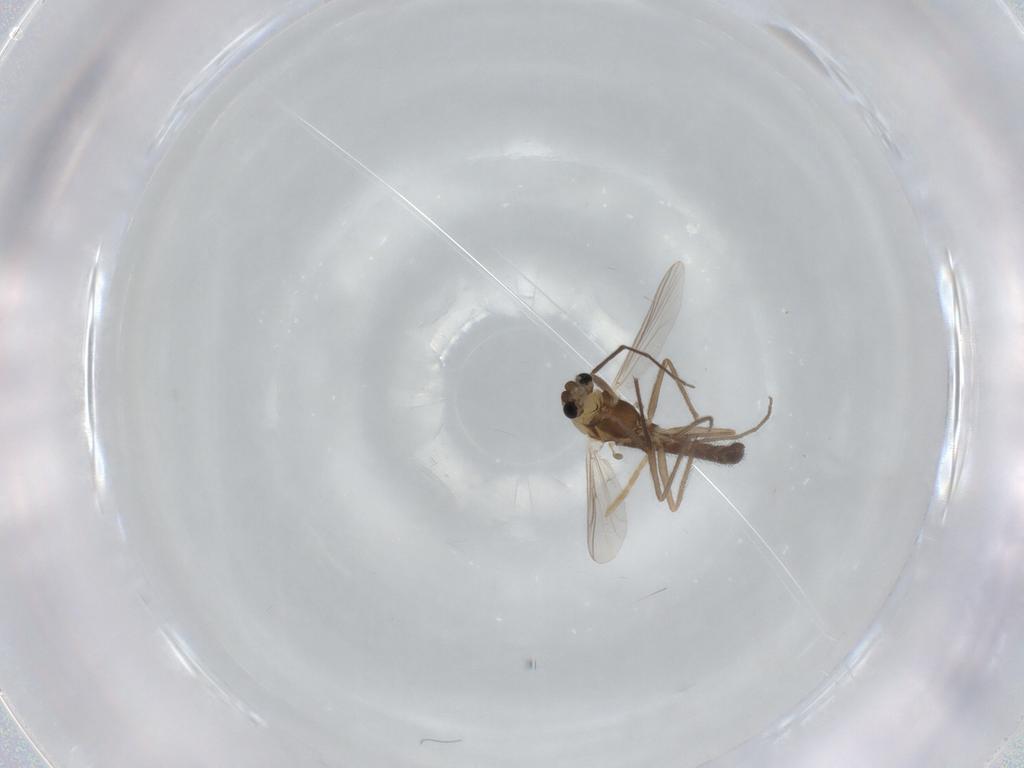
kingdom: Animalia
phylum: Arthropoda
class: Insecta
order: Diptera
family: Chironomidae
